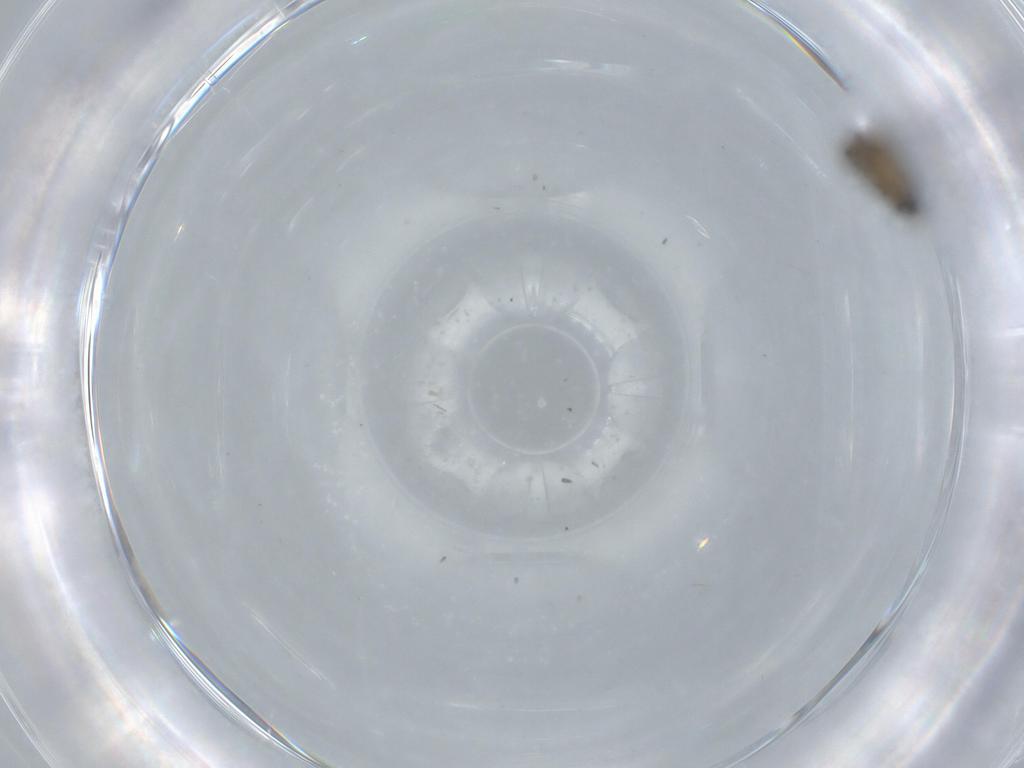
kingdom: Animalia
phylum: Arthropoda
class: Insecta
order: Diptera
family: Psychodidae
